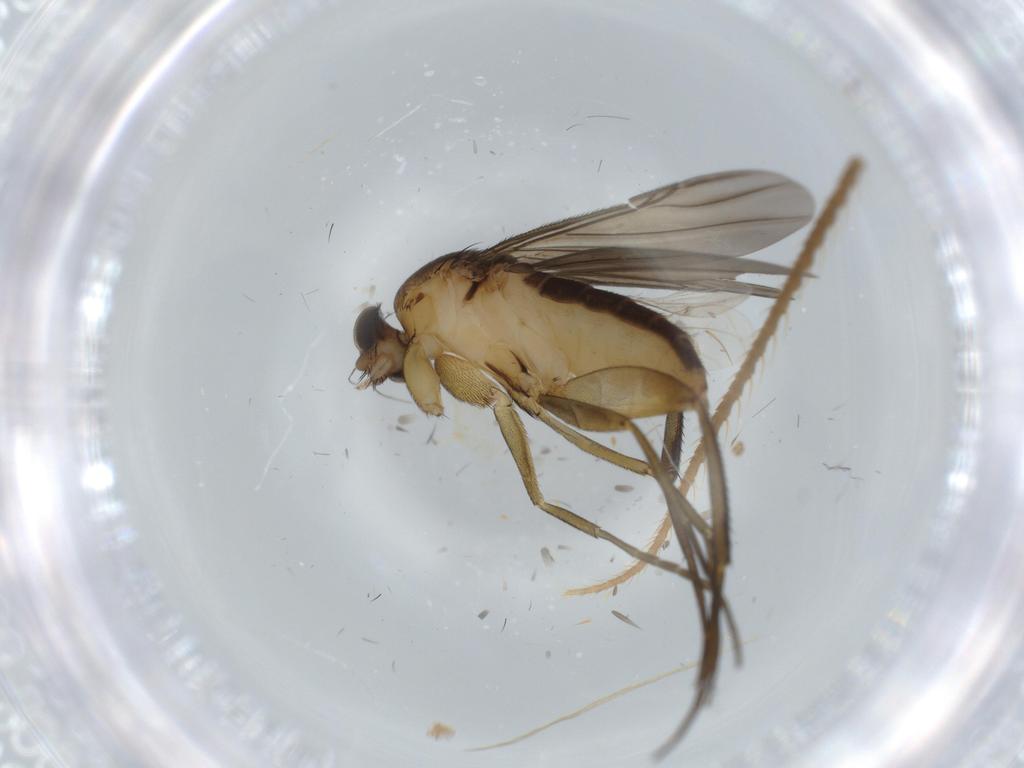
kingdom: Animalia
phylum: Arthropoda
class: Insecta
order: Diptera
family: Phoridae
